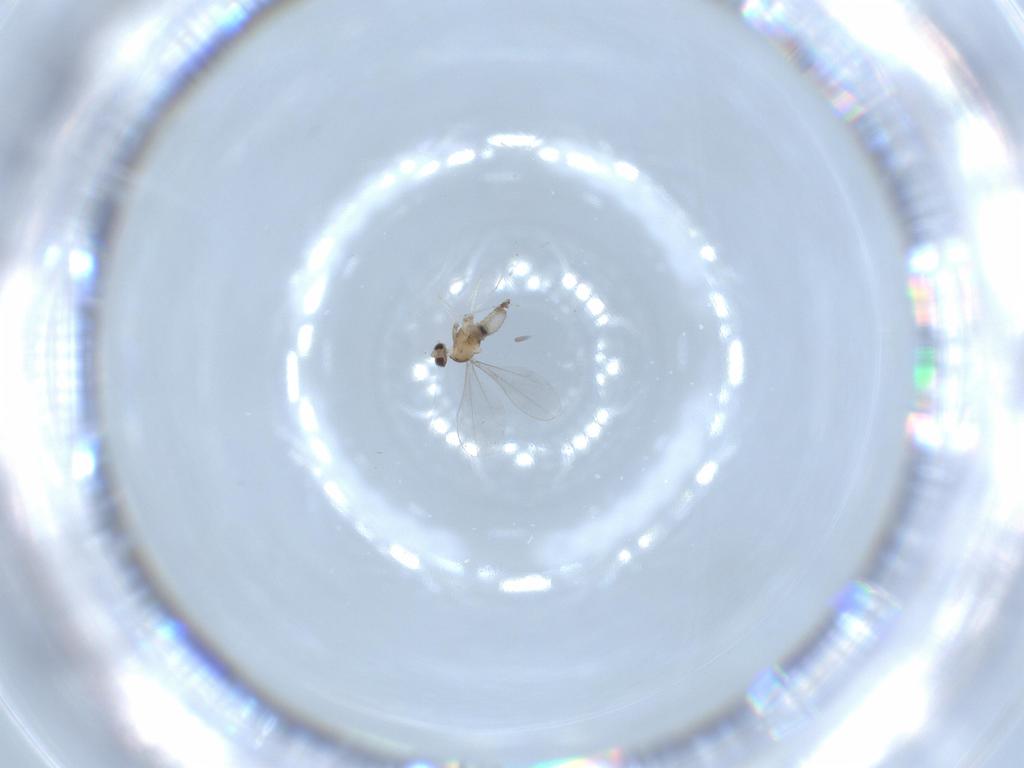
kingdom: Animalia
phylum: Arthropoda
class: Insecta
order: Diptera
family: Cecidomyiidae
